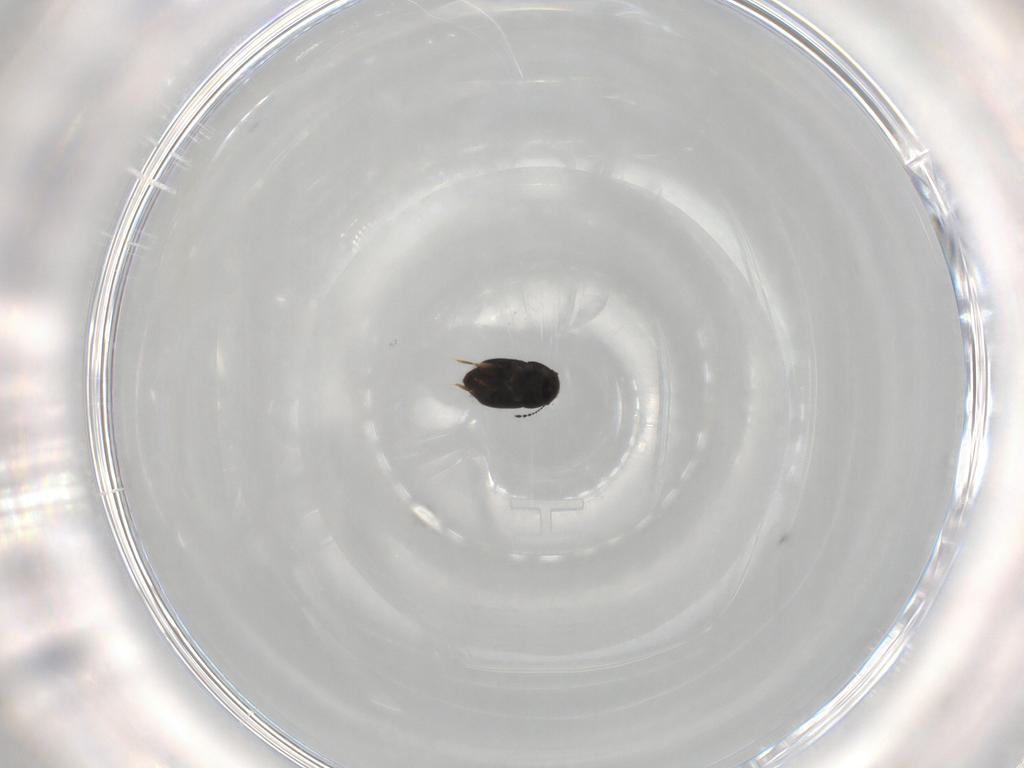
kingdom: Animalia
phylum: Arthropoda
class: Insecta
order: Coleoptera
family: Ptiliidae
